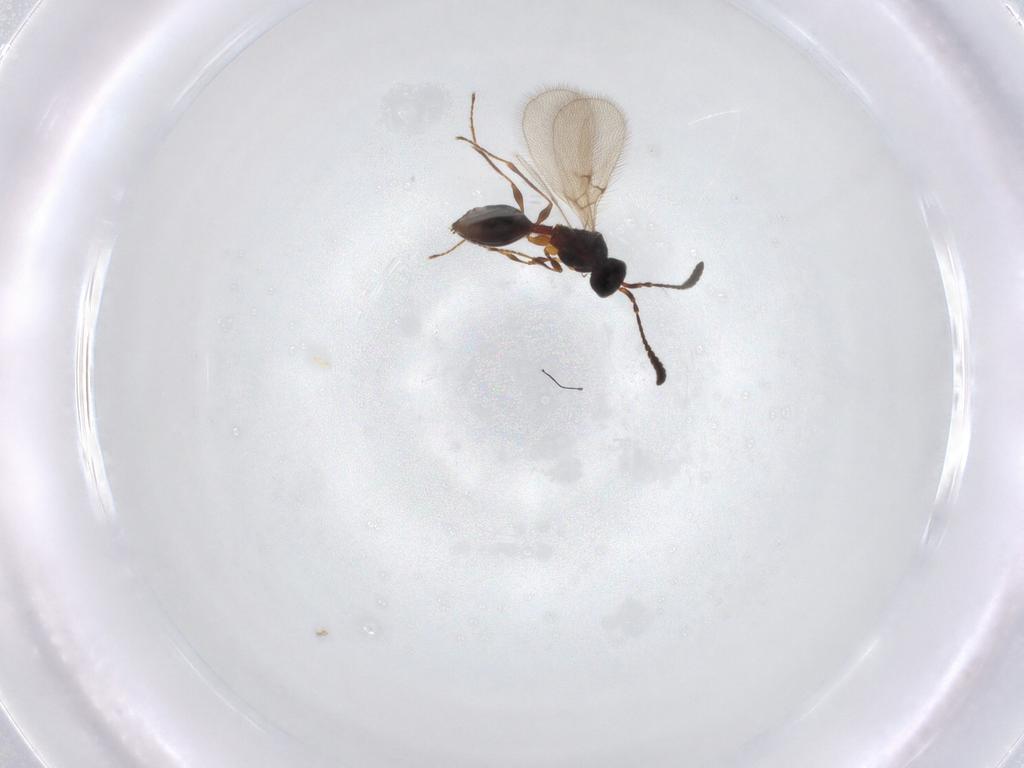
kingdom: Animalia
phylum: Arthropoda
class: Insecta
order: Hymenoptera
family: Diapriidae
